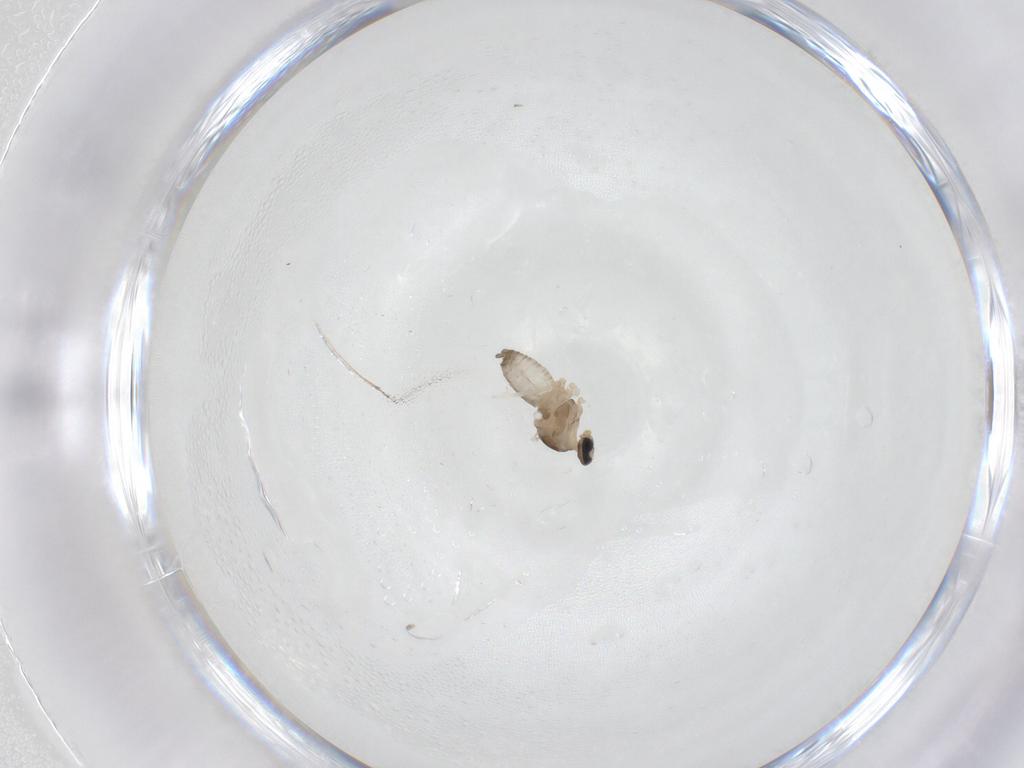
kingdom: Animalia
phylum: Arthropoda
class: Insecta
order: Diptera
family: Cecidomyiidae
